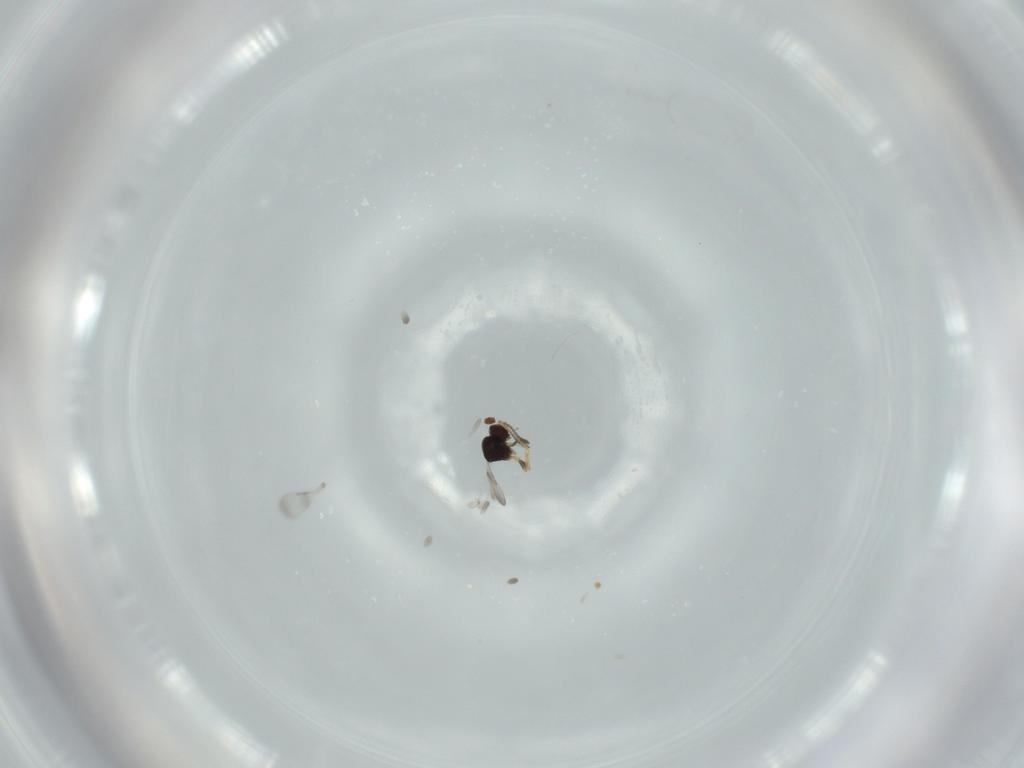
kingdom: Animalia
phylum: Arthropoda
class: Insecta
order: Hymenoptera
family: Ceraphronidae
